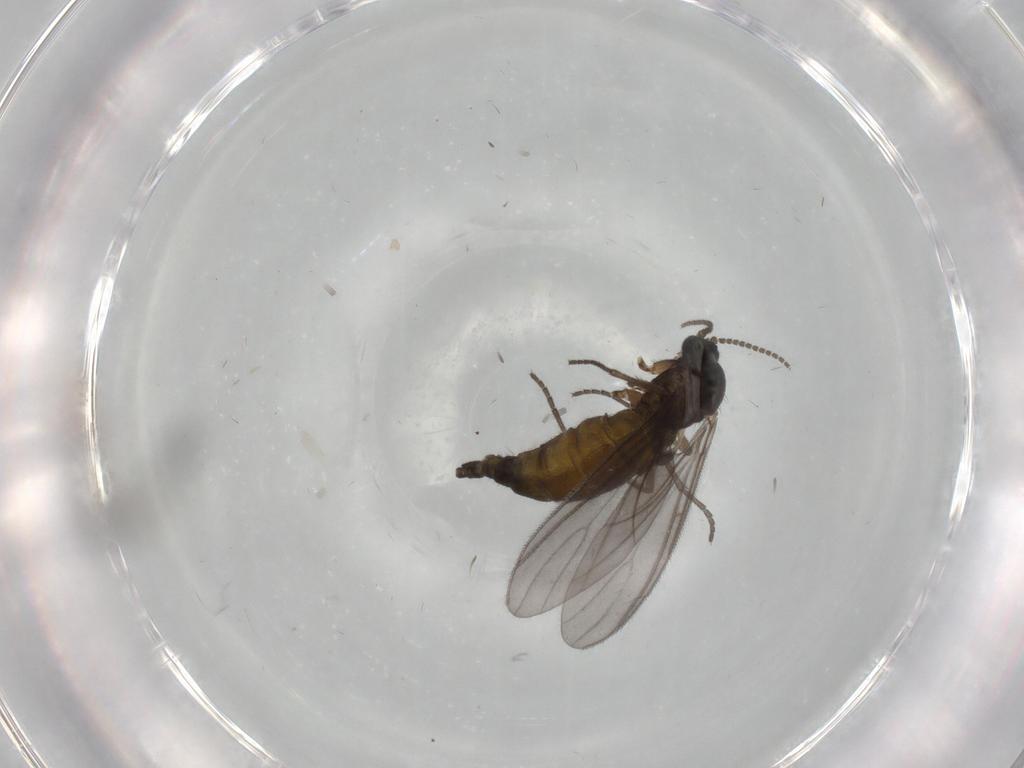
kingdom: Animalia
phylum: Arthropoda
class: Insecta
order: Diptera
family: Sciaridae
